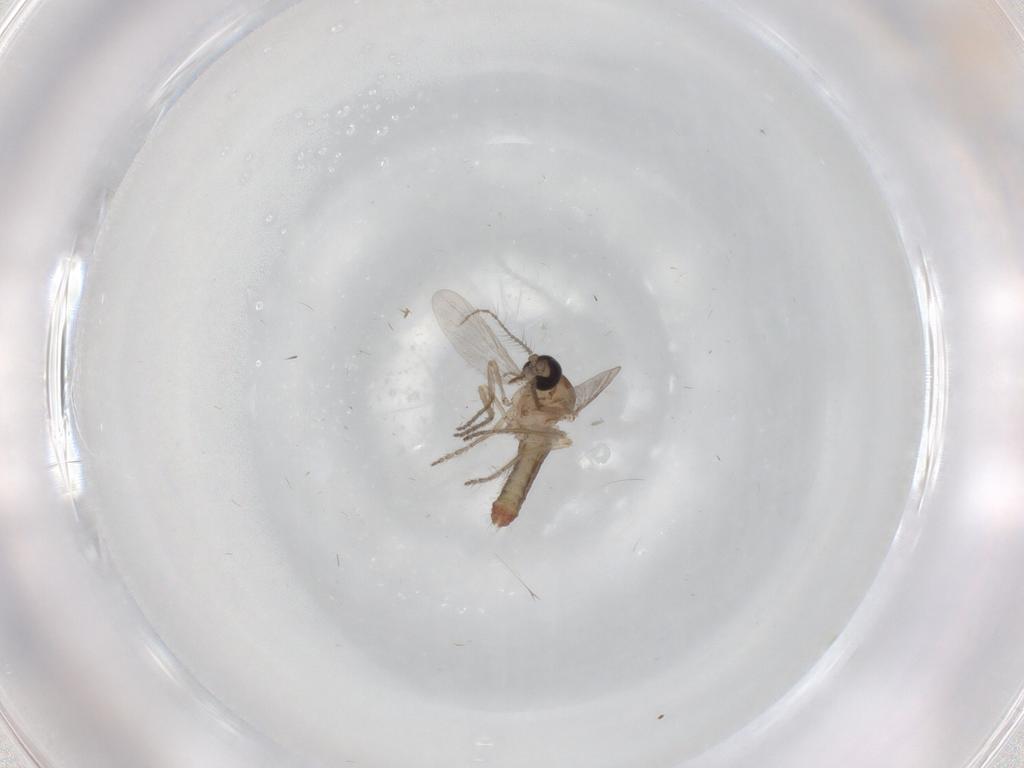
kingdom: Animalia
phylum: Arthropoda
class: Insecta
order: Diptera
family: Ceratopogonidae
